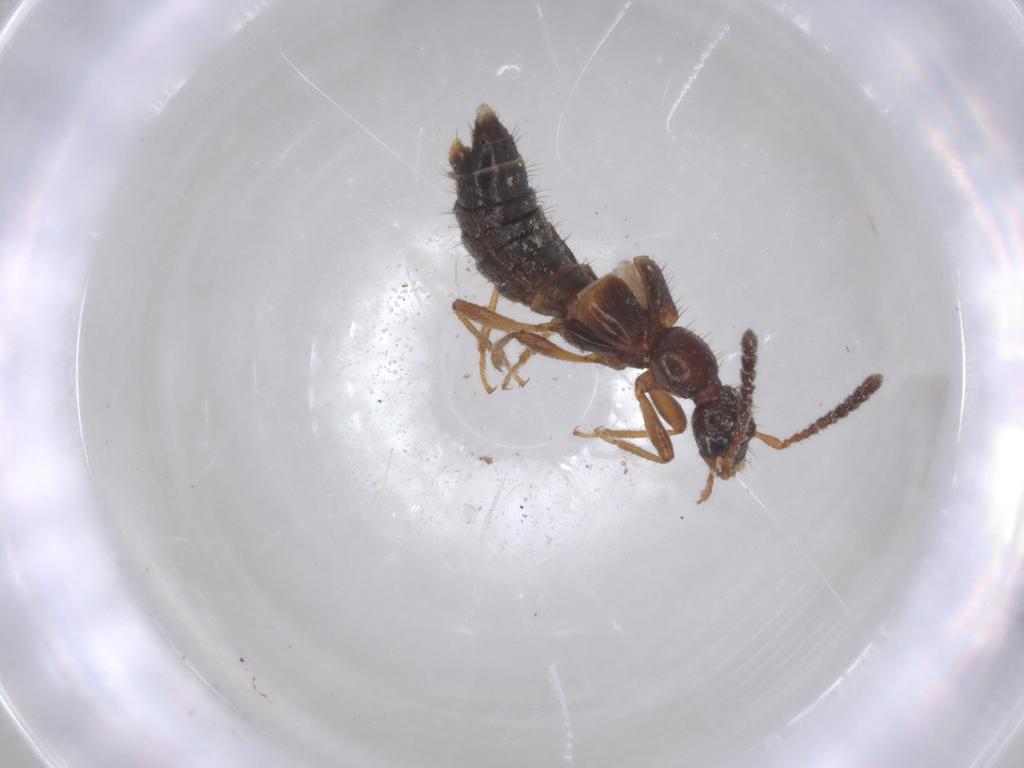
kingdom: Animalia
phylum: Arthropoda
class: Insecta
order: Coleoptera
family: Staphylinidae
